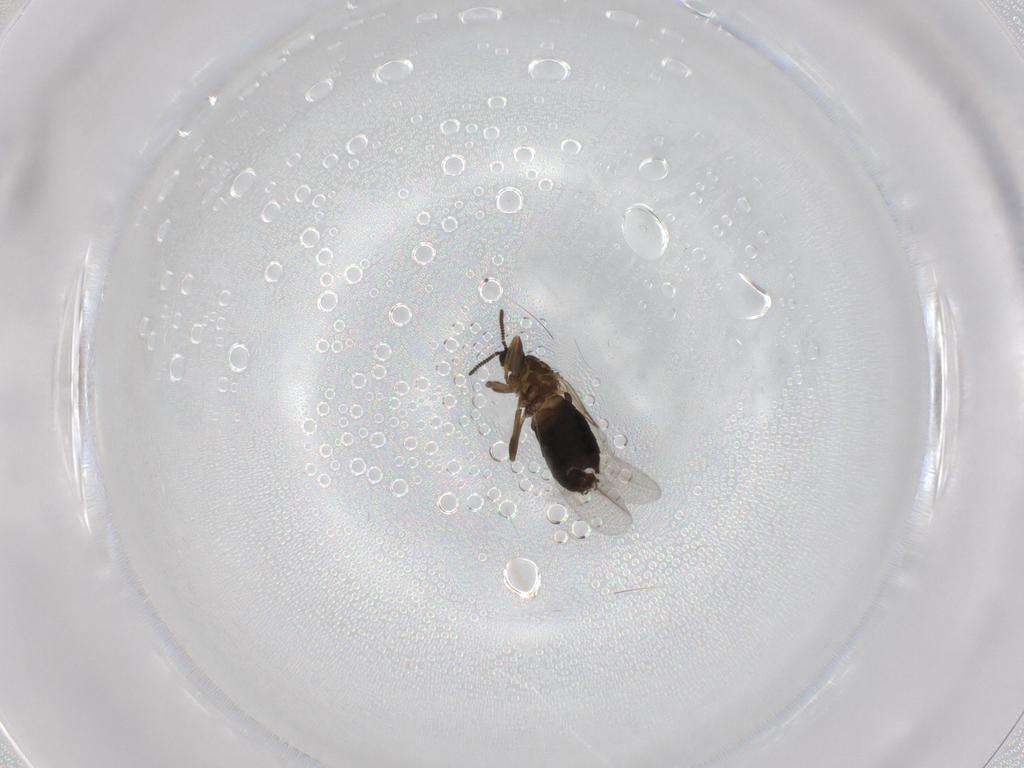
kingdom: Animalia
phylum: Arthropoda
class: Insecta
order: Diptera
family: Scatopsidae
